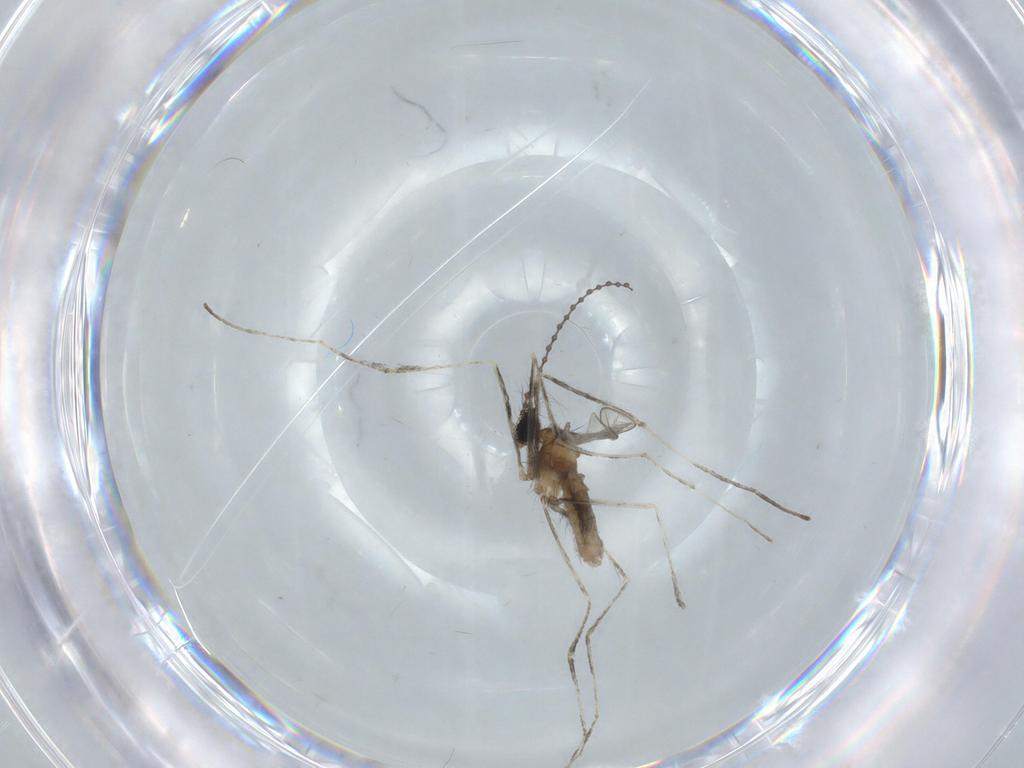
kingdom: Animalia
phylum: Arthropoda
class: Insecta
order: Diptera
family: Cecidomyiidae
